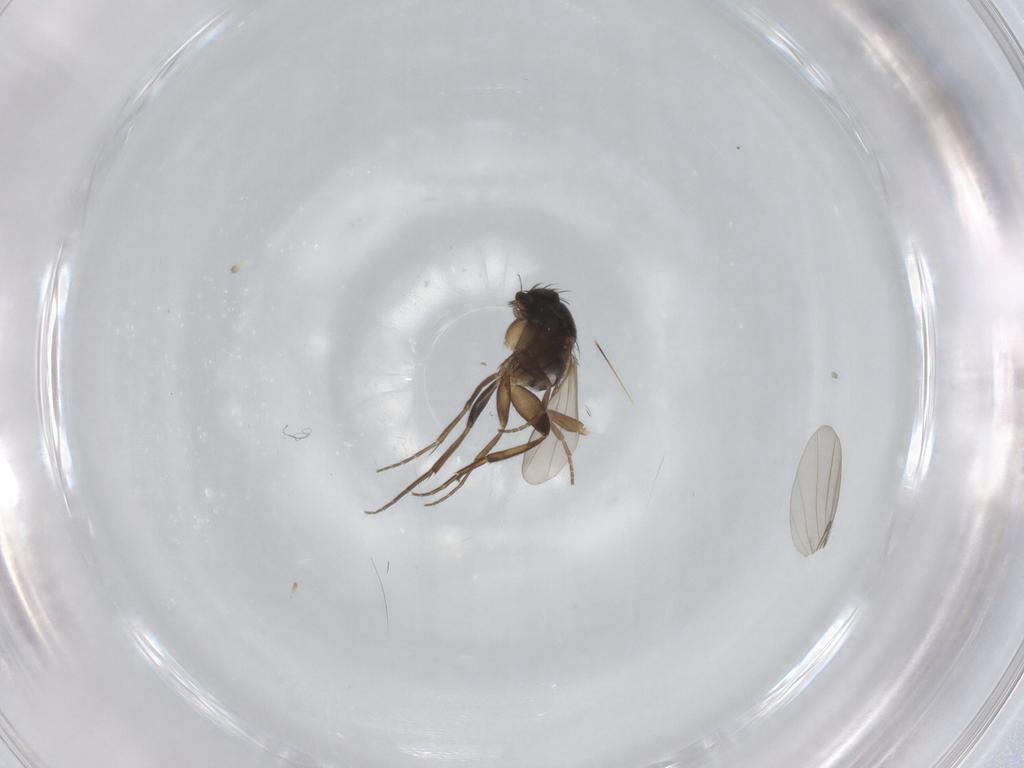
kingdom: Animalia
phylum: Arthropoda
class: Insecta
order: Diptera
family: Phoridae
